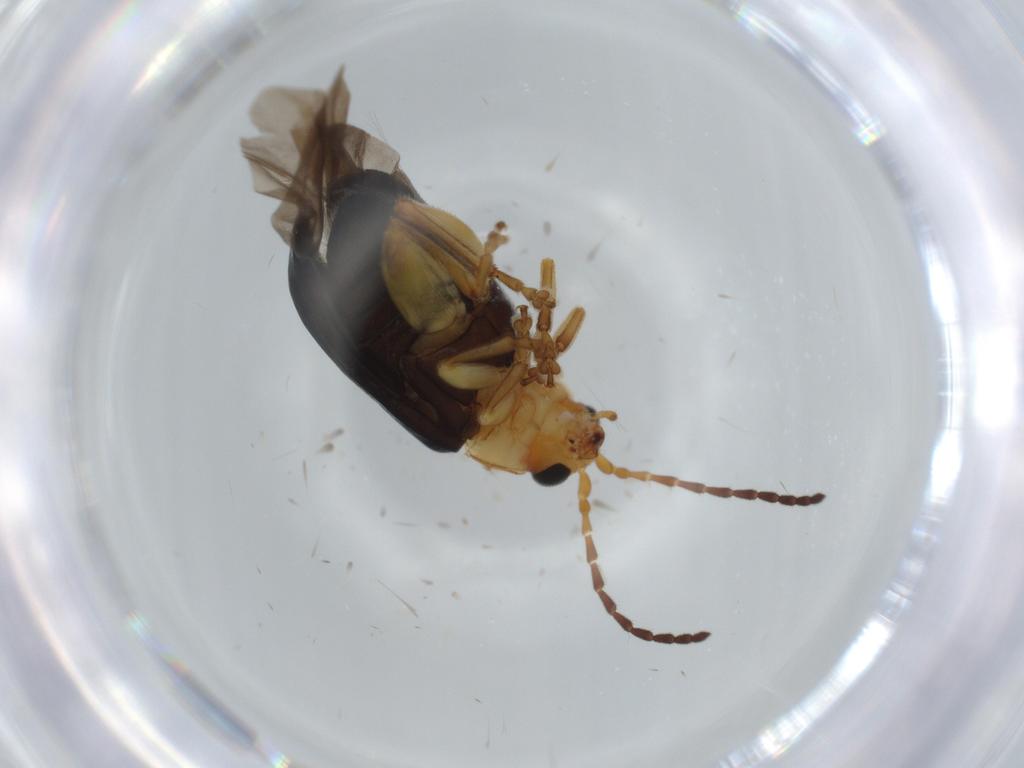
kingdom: Animalia
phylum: Arthropoda
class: Insecta
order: Coleoptera
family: Chrysomelidae
